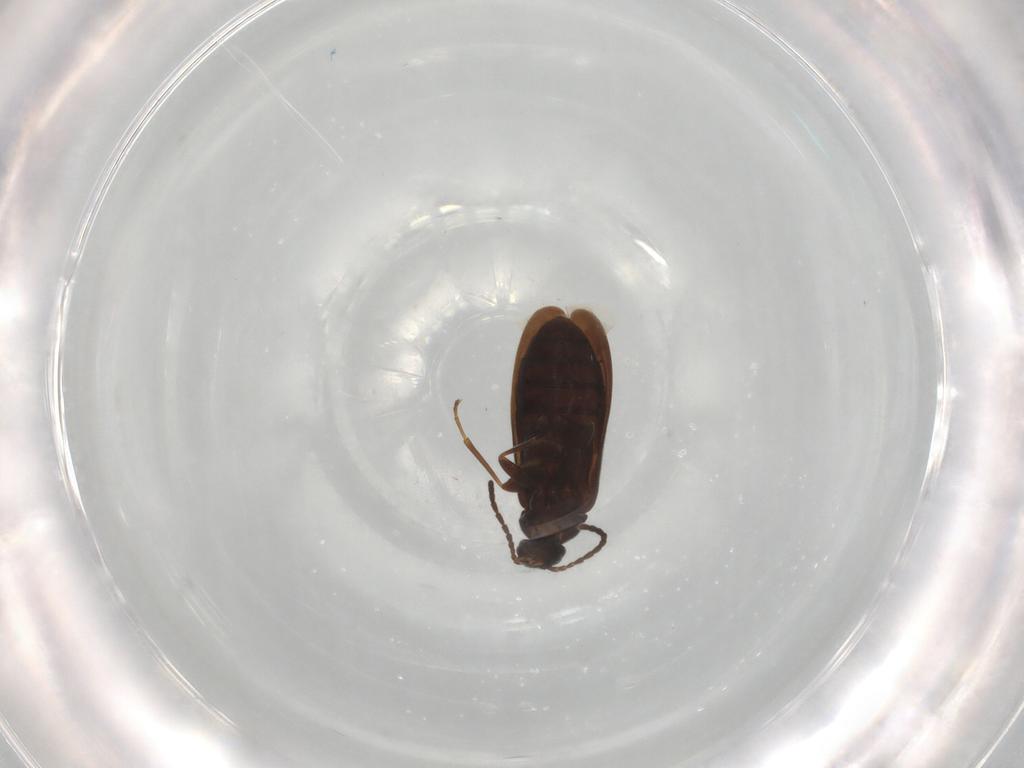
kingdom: Animalia
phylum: Arthropoda
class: Insecta
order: Coleoptera
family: Scraptiidae
